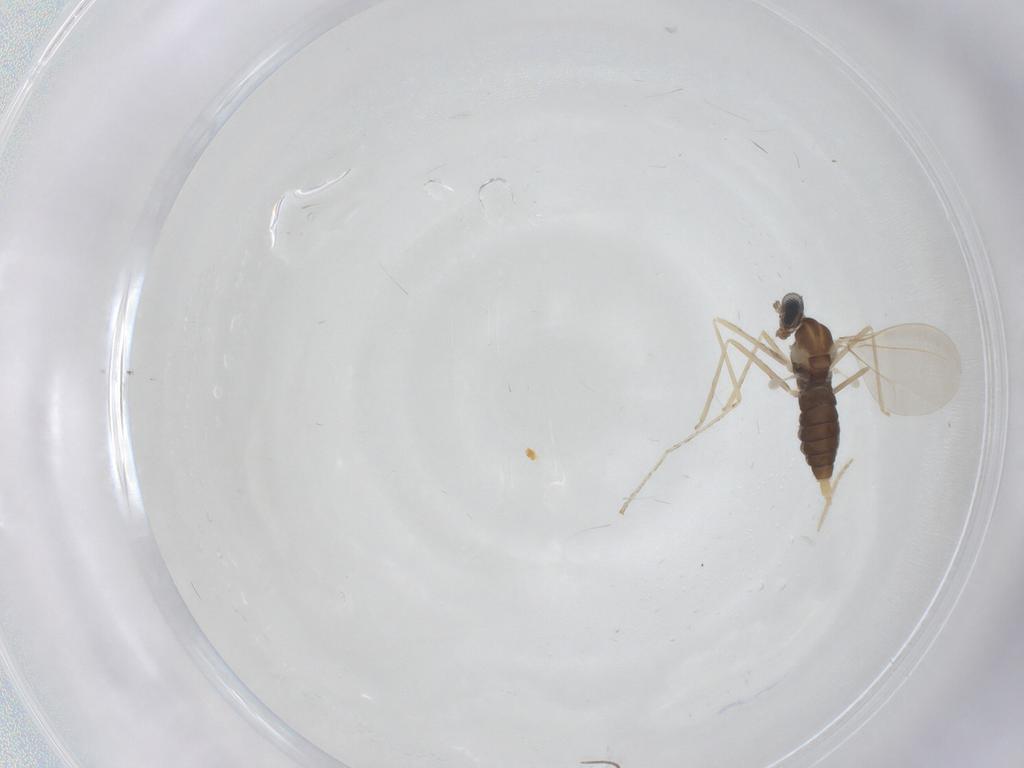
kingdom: Animalia
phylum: Arthropoda
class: Insecta
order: Diptera
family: Cecidomyiidae
